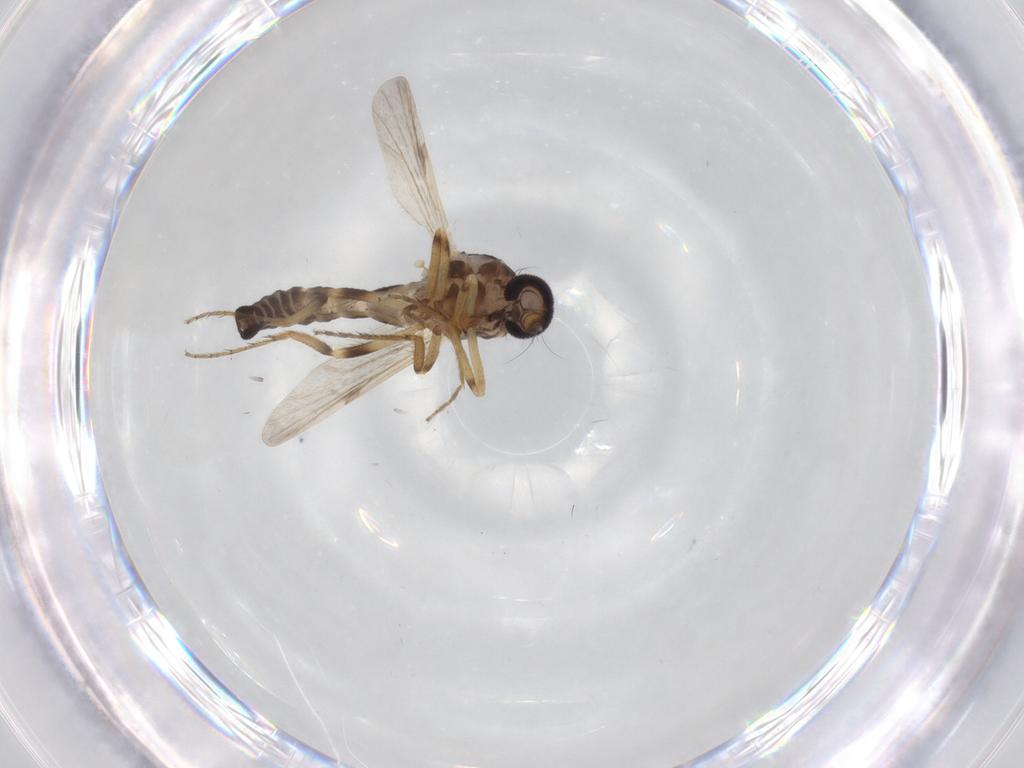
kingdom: Animalia
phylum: Arthropoda
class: Insecta
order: Diptera
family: Ceratopogonidae
